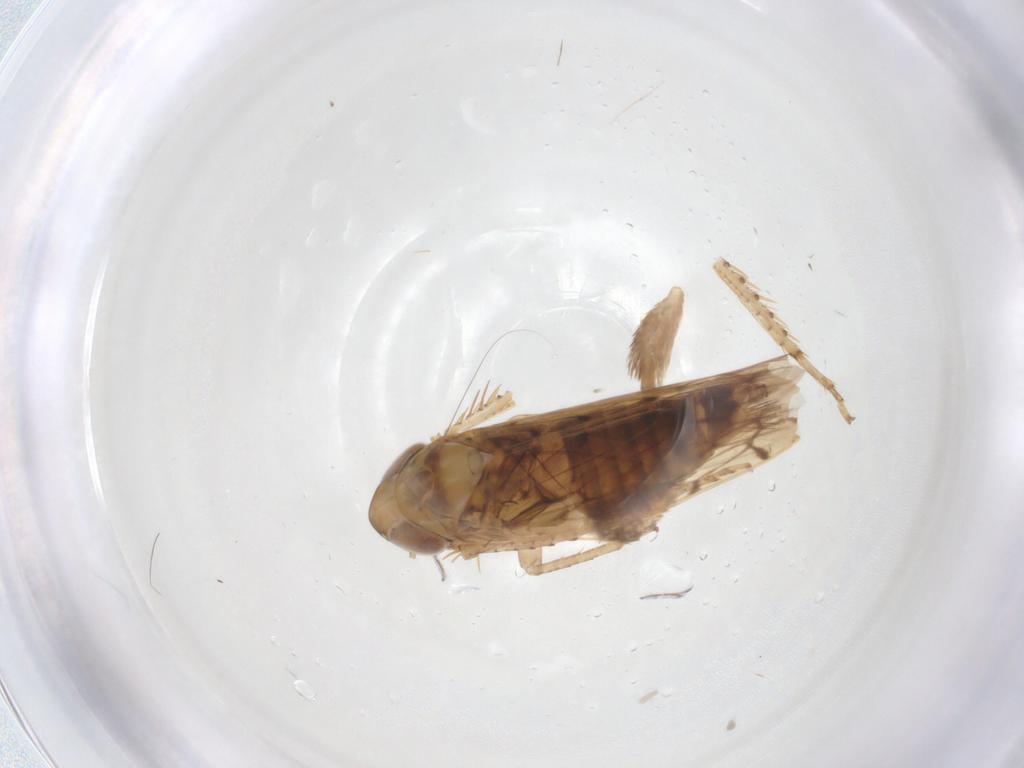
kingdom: Animalia
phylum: Arthropoda
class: Insecta
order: Hemiptera
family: Cicadellidae
